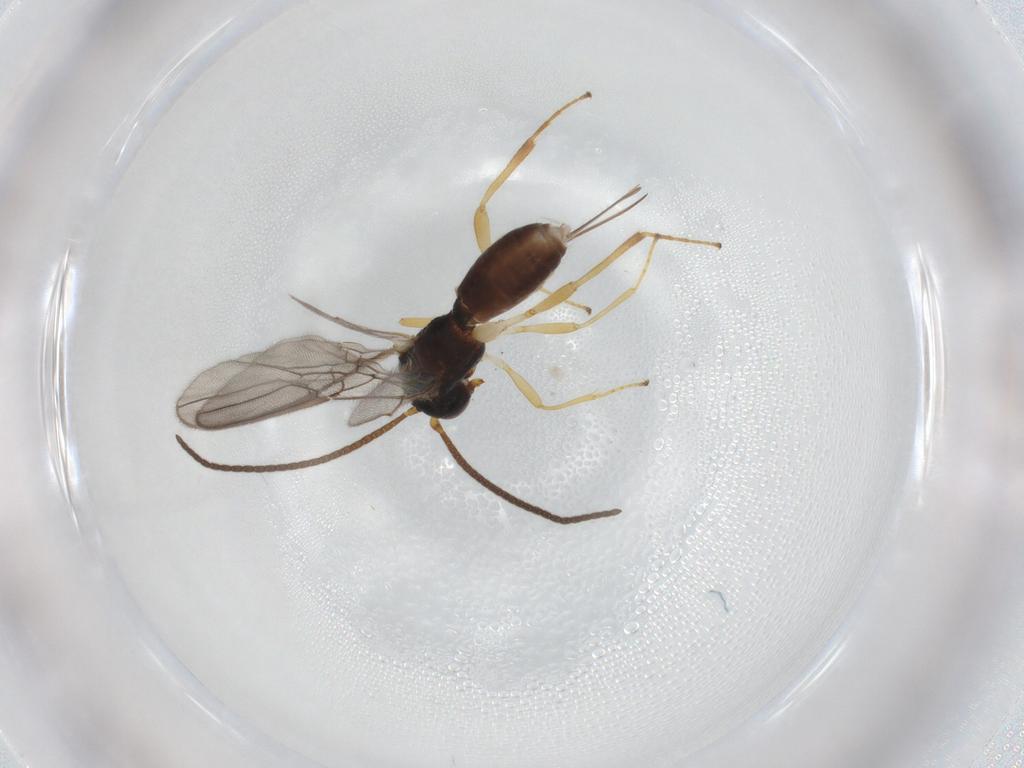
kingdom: Animalia
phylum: Arthropoda
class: Insecta
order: Hymenoptera
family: Braconidae
